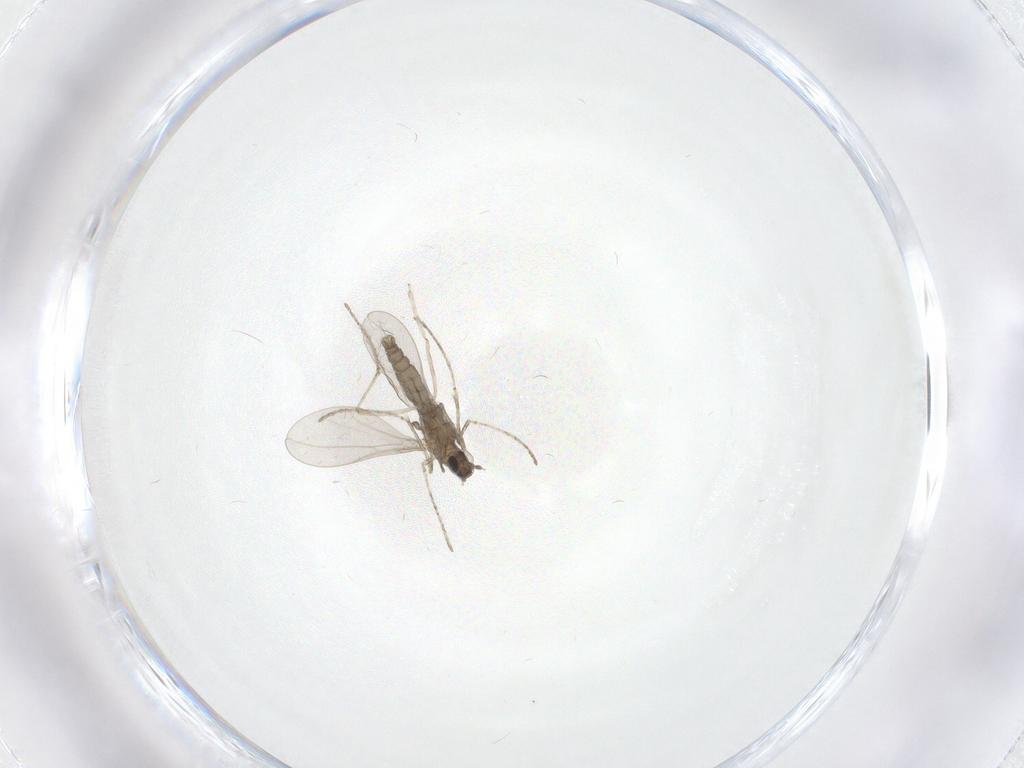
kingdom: Animalia
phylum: Arthropoda
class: Insecta
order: Diptera
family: Cecidomyiidae
